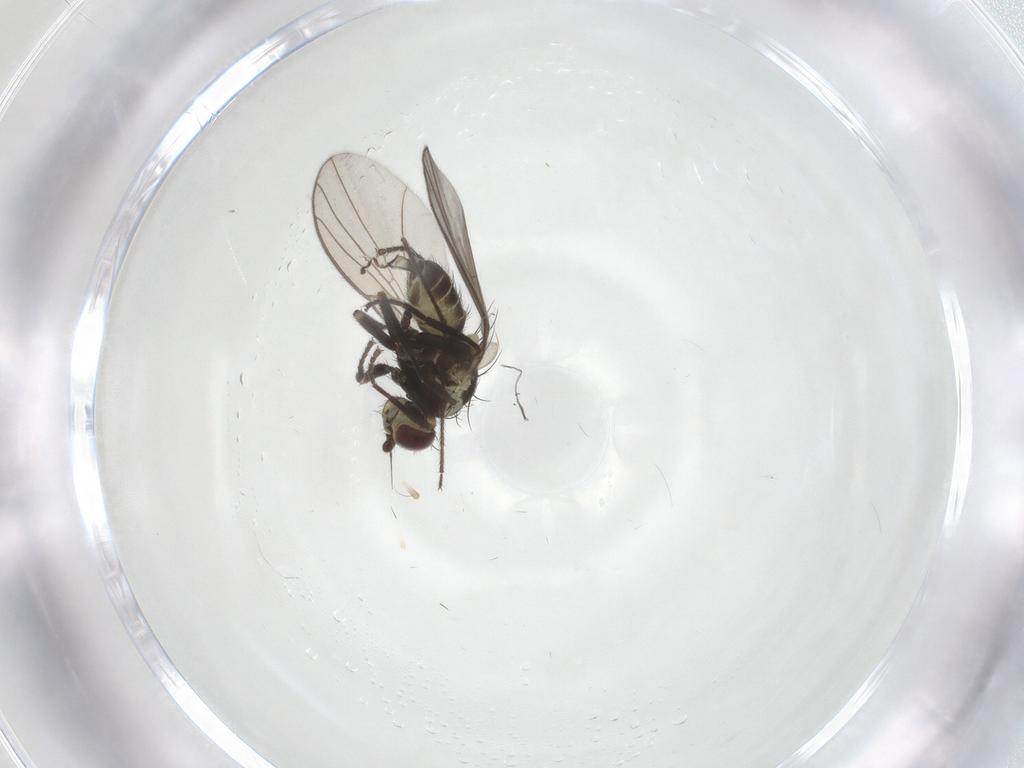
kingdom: Animalia
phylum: Arthropoda
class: Insecta
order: Diptera
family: Agromyzidae
